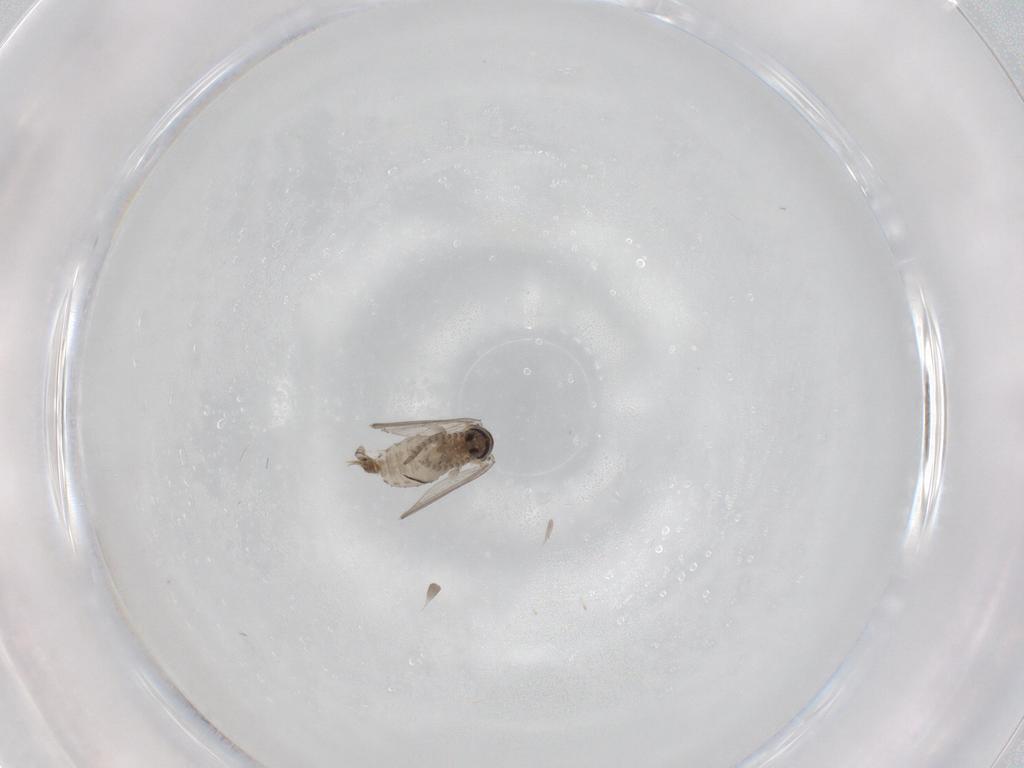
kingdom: Animalia
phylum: Arthropoda
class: Insecta
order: Diptera
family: Psychodidae
